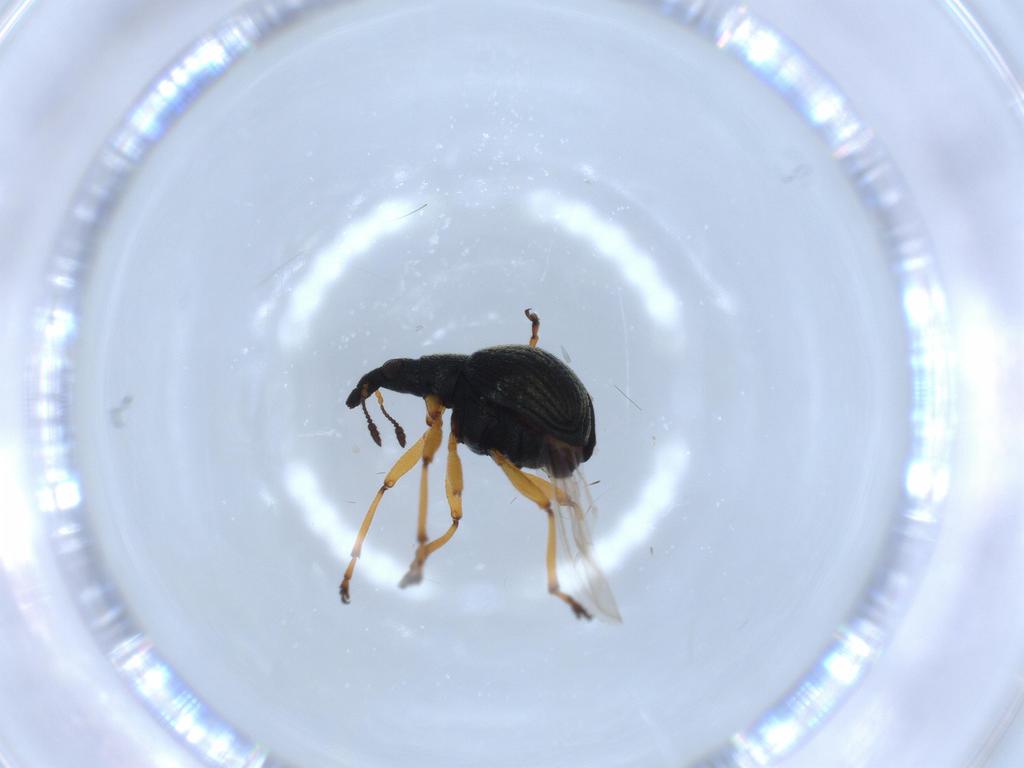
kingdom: Animalia
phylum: Arthropoda
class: Insecta
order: Coleoptera
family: Brentidae
